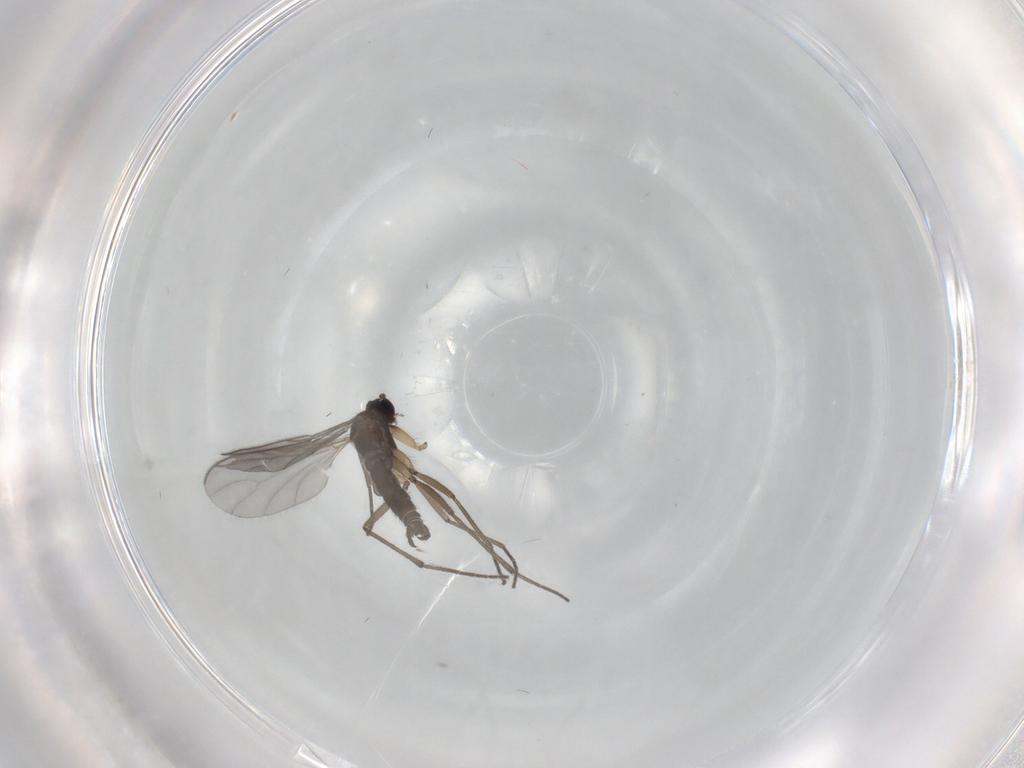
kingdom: Animalia
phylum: Arthropoda
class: Insecta
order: Diptera
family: Sciaridae
